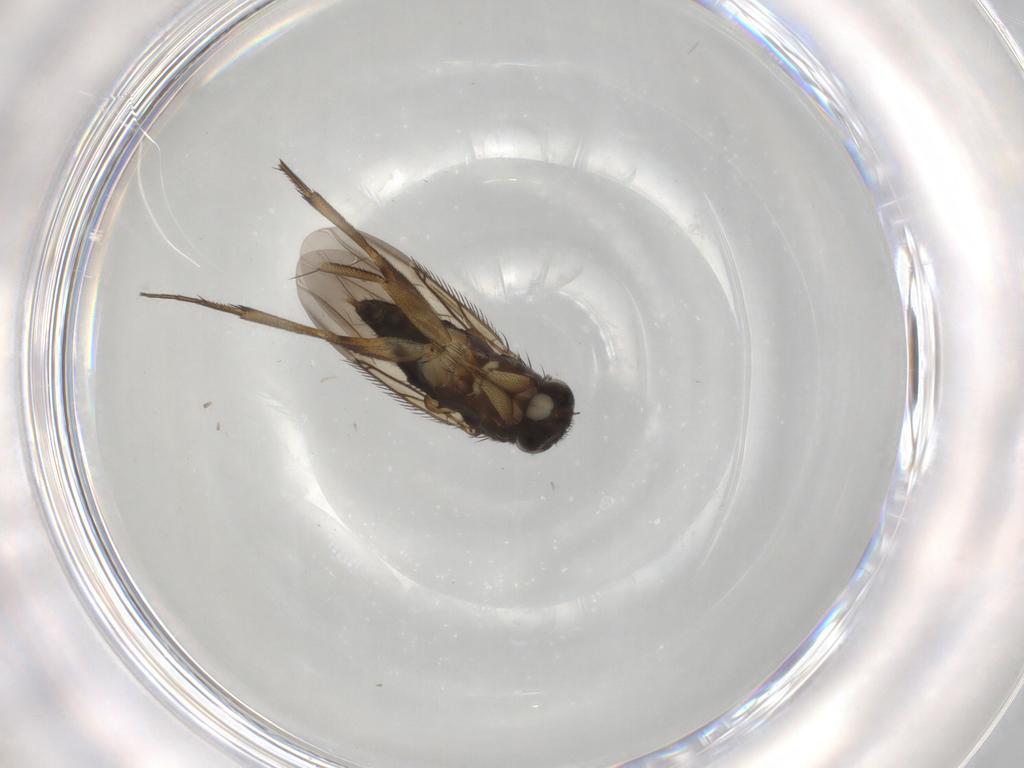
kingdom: Animalia
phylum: Arthropoda
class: Insecta
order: Diptera
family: Phoridae
